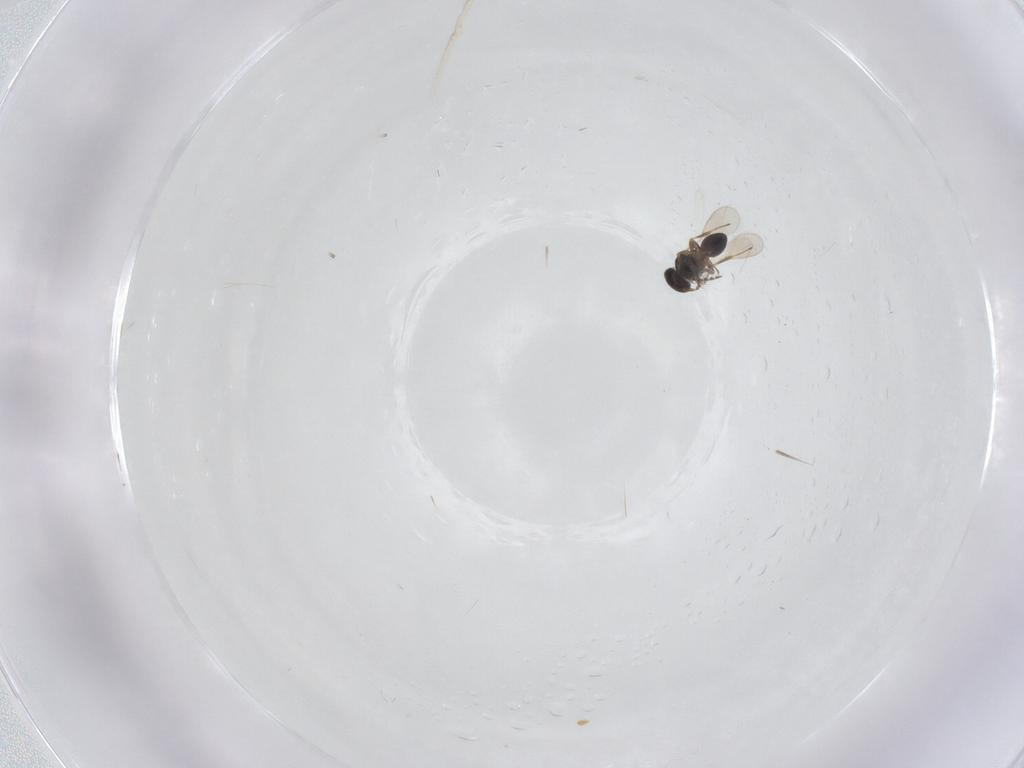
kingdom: Animalia
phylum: Arthropoda
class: Insecta
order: Hymenoptera
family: Platygastridae
